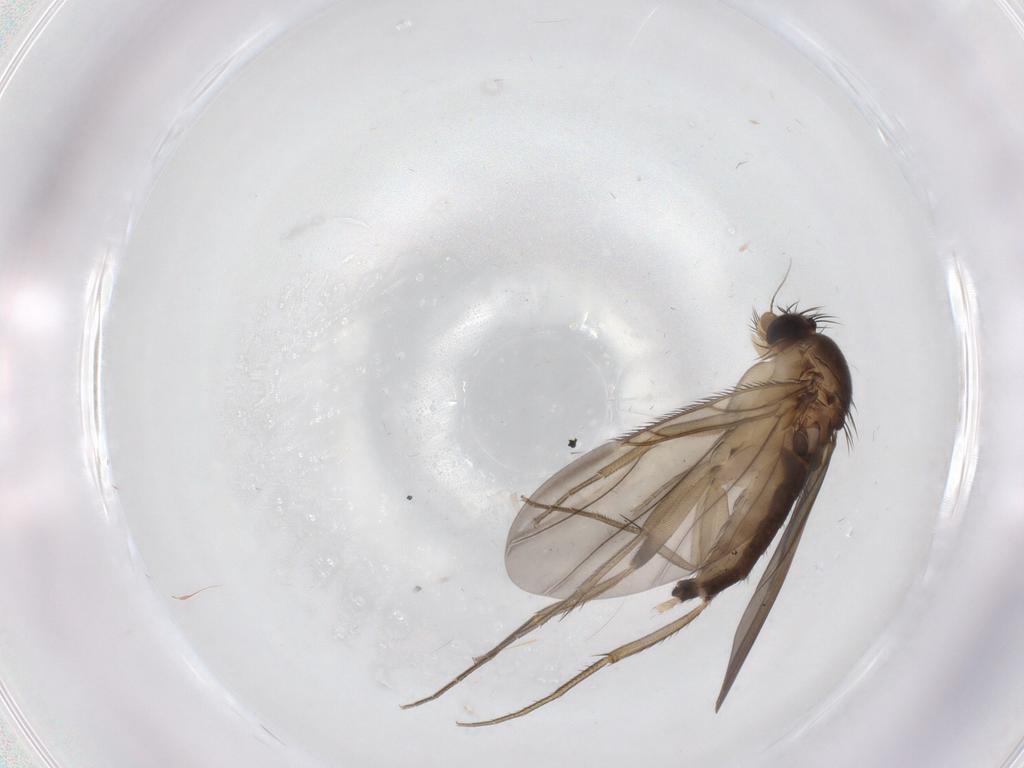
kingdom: Animalia
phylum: Arthropoda
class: Insecta
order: Diptera
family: Phoridae
